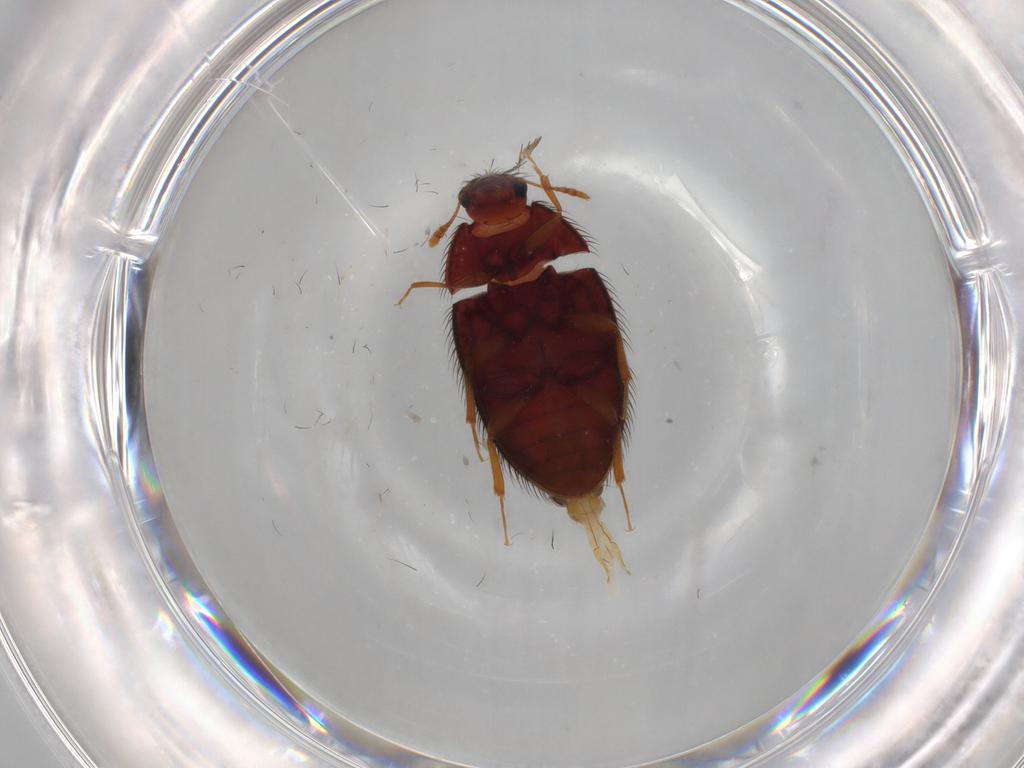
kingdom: Animalia
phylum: Arthropoda
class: Insecta
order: Coleoptera
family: Biphyllidae
